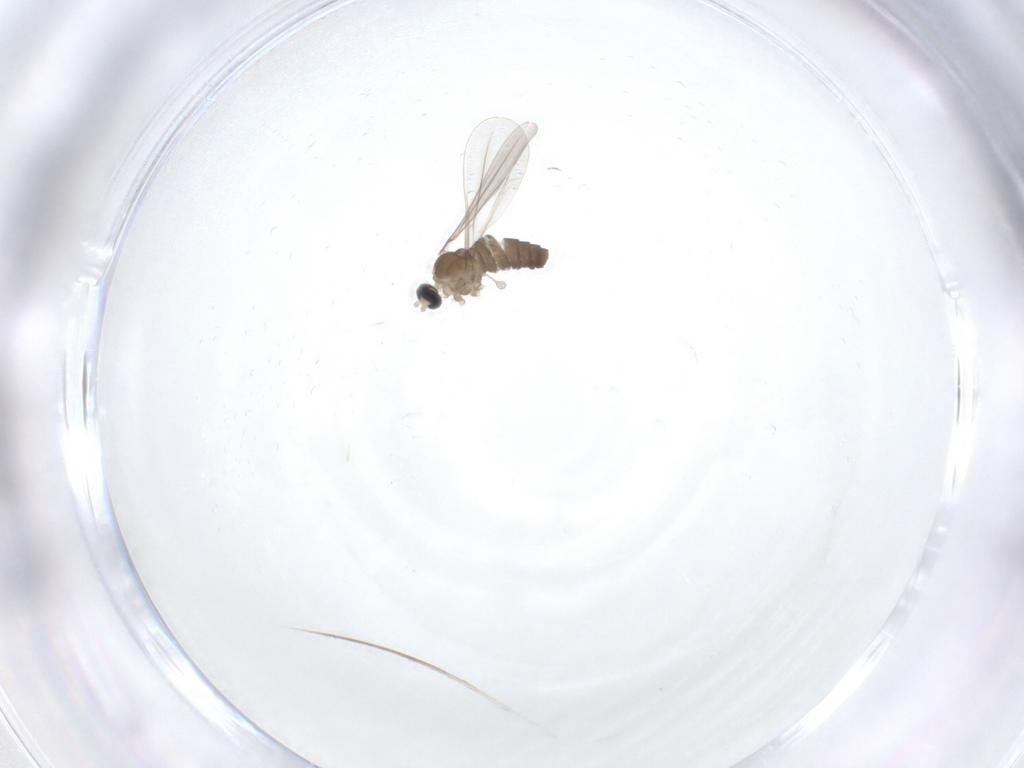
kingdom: Animalia
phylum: Arthropoda
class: Insecta
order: Diptera
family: Cecidomyiidae
